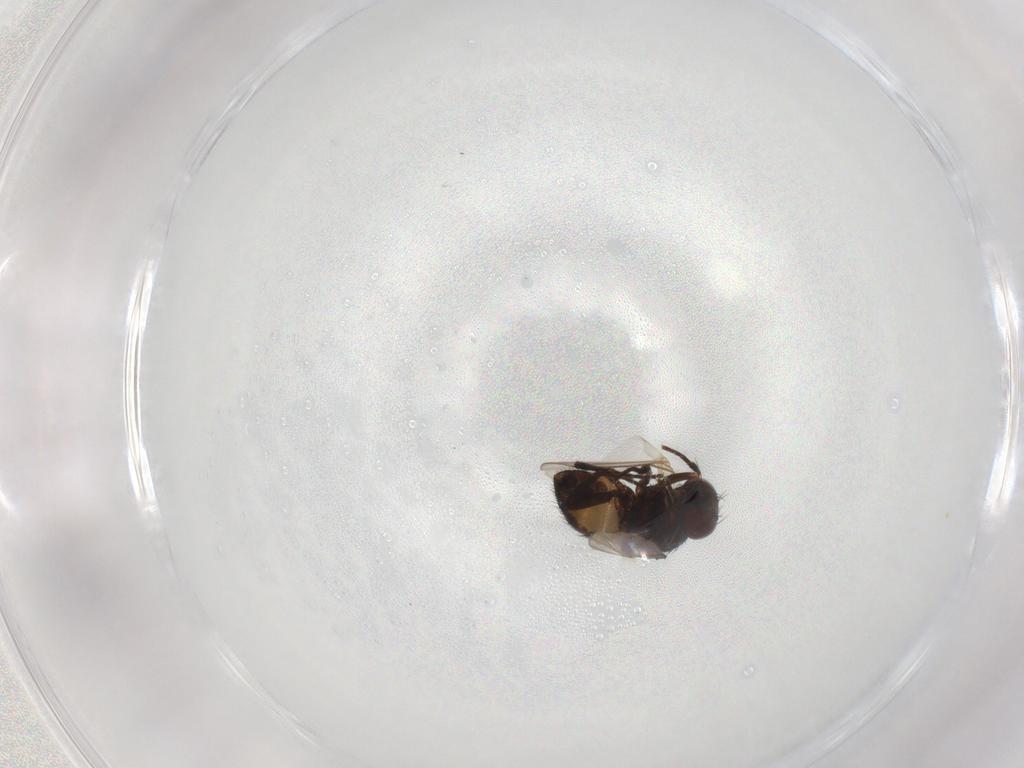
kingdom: Animalia
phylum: Arthropoda
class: Insecta
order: Diptera
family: Agromyzidae
